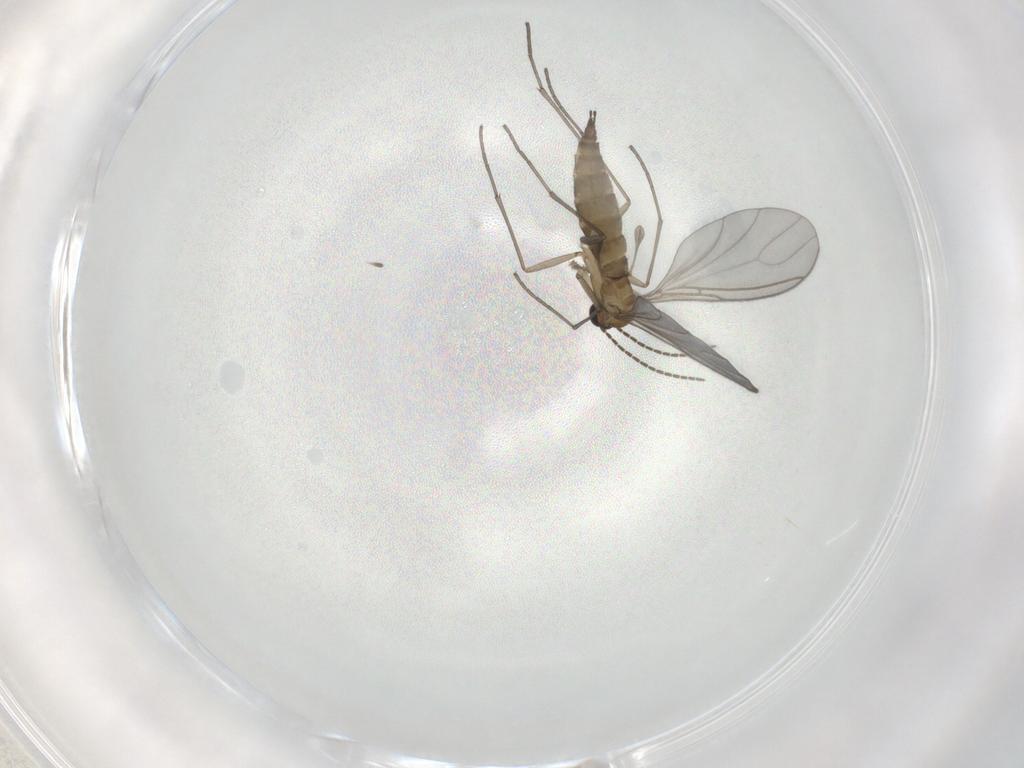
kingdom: Animalia
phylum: Arthropoda
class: Insecta
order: Diptera
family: Sciaridae
